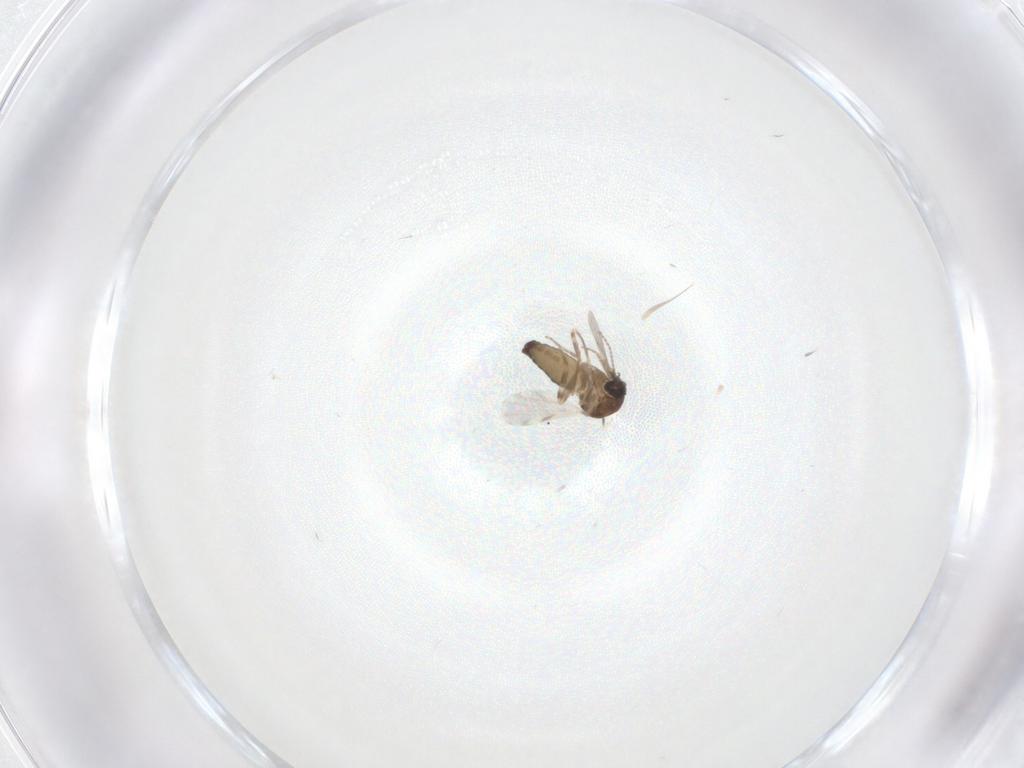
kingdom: Animalia
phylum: Arthropoda
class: Insecta
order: Diptera
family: Ceratopogonidae
